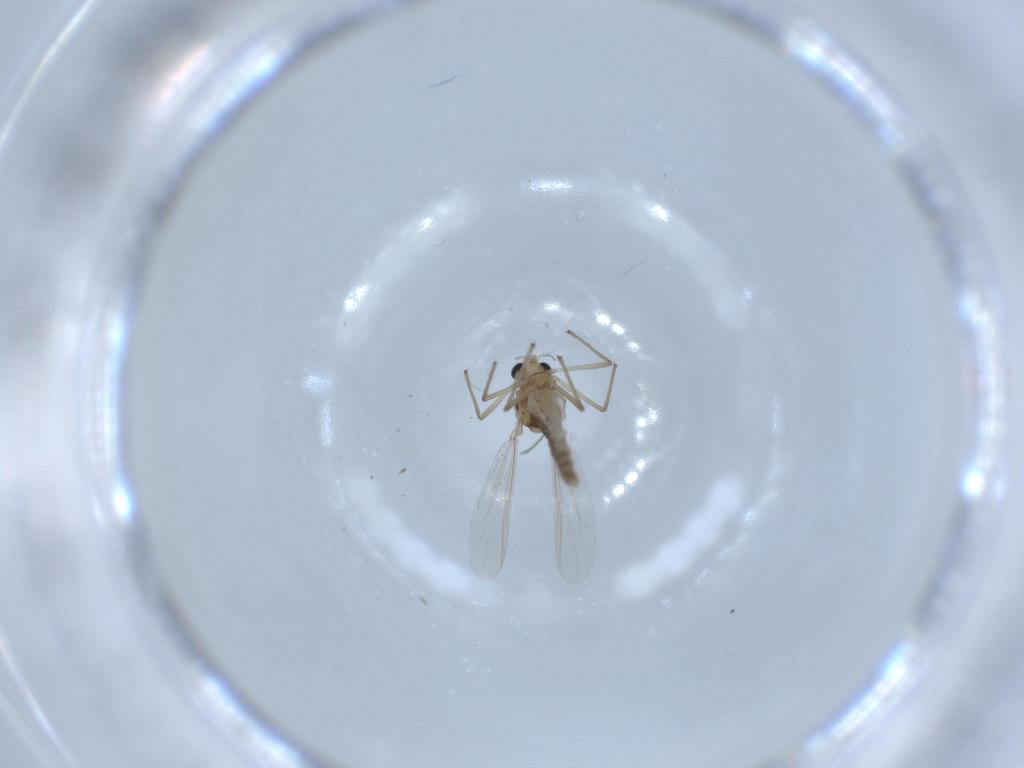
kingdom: Animalia
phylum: Arthropoda
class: Insecta
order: Diptera
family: Chironomidae
